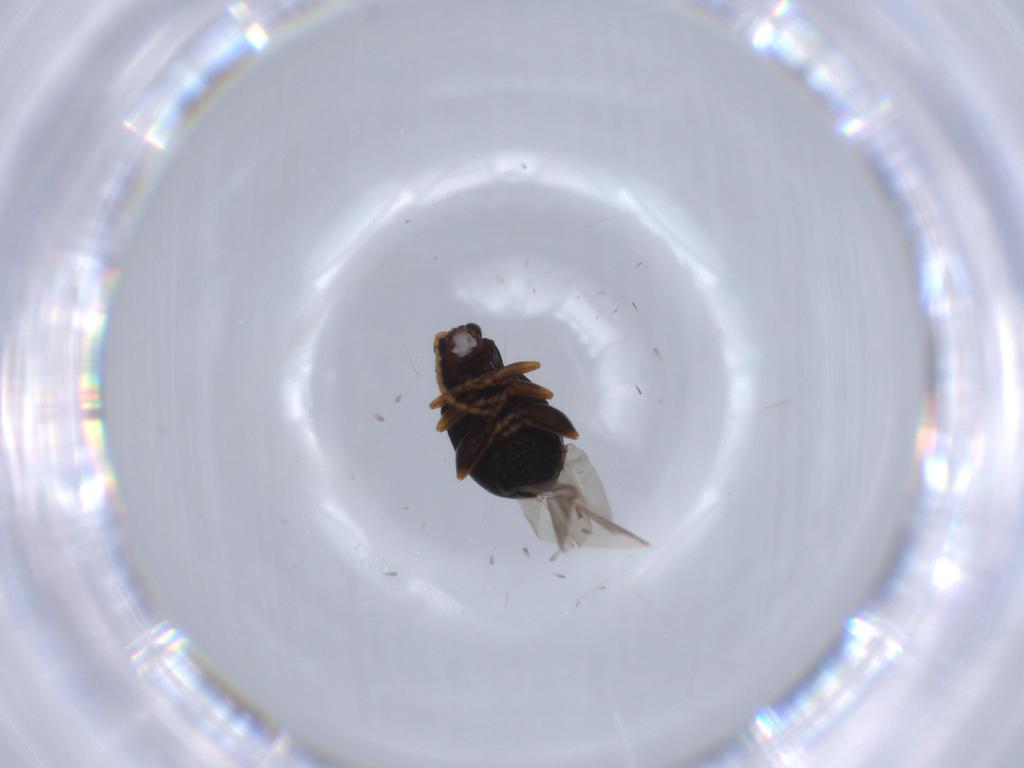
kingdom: Animalia
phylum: Arthropoda
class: Insecta
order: Coleoptera
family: Chrysomelidae
